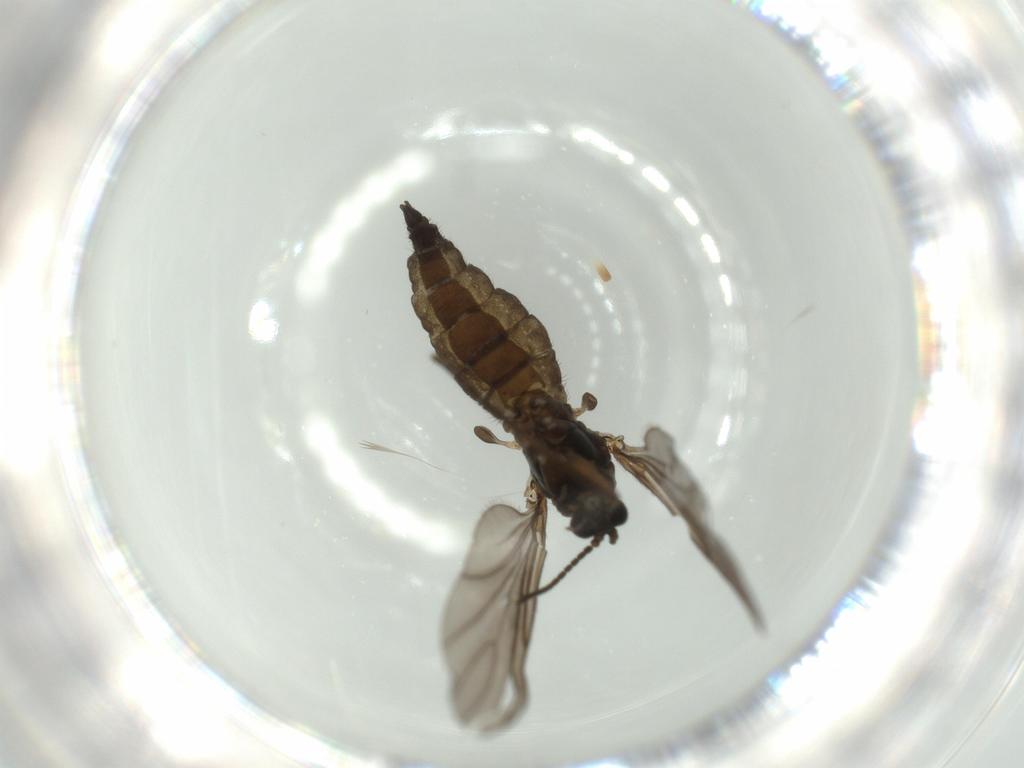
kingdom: Animalia
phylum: Arthropoda
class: Insecta
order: Diptera
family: Sciaridae
